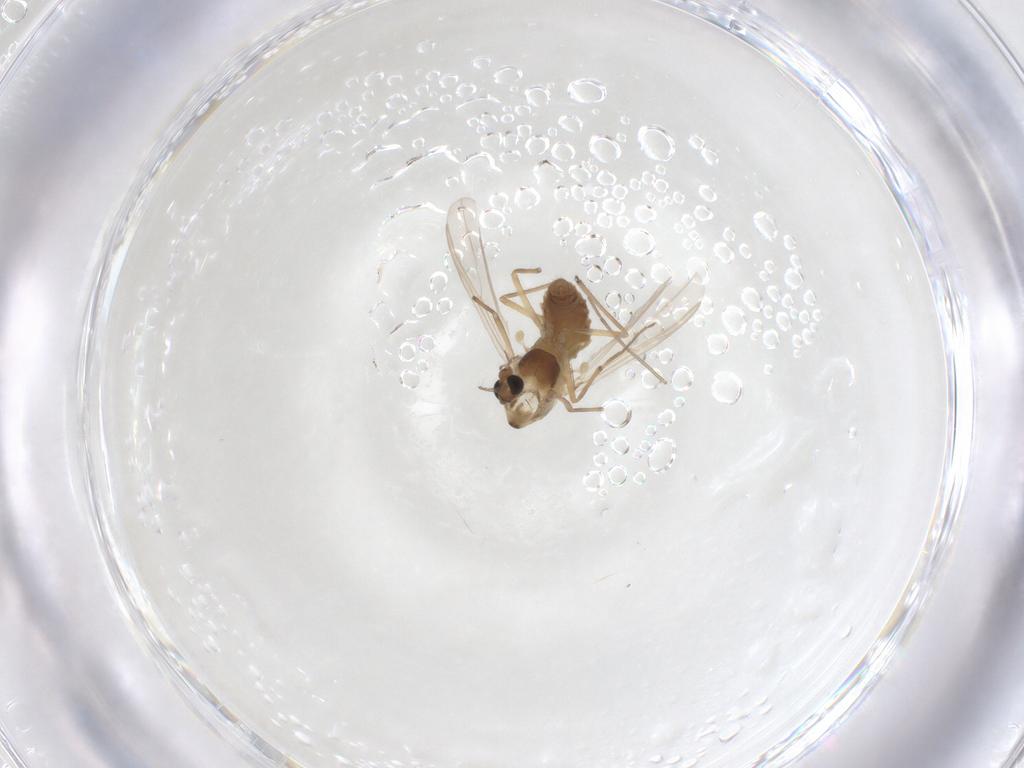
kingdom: Animalia
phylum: Arthropoda
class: Insecta
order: Diptera
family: Chironomidae
